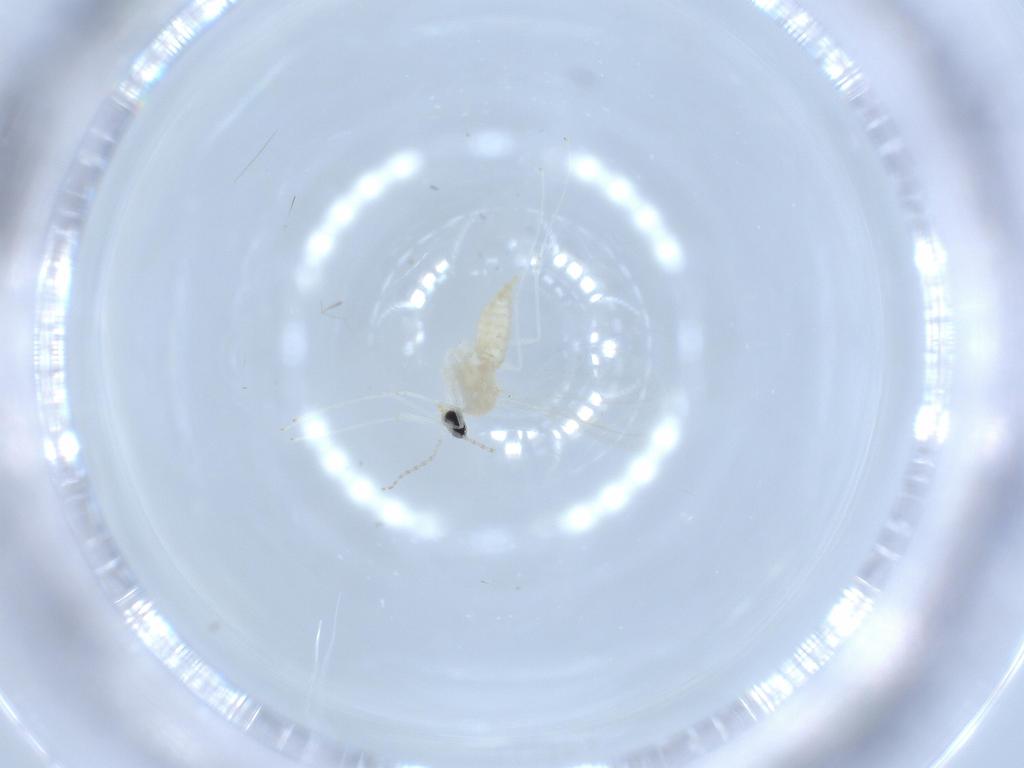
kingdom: Animalia
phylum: Arthropoda
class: Insecta
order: Diptera
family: Cecidomyiidae
